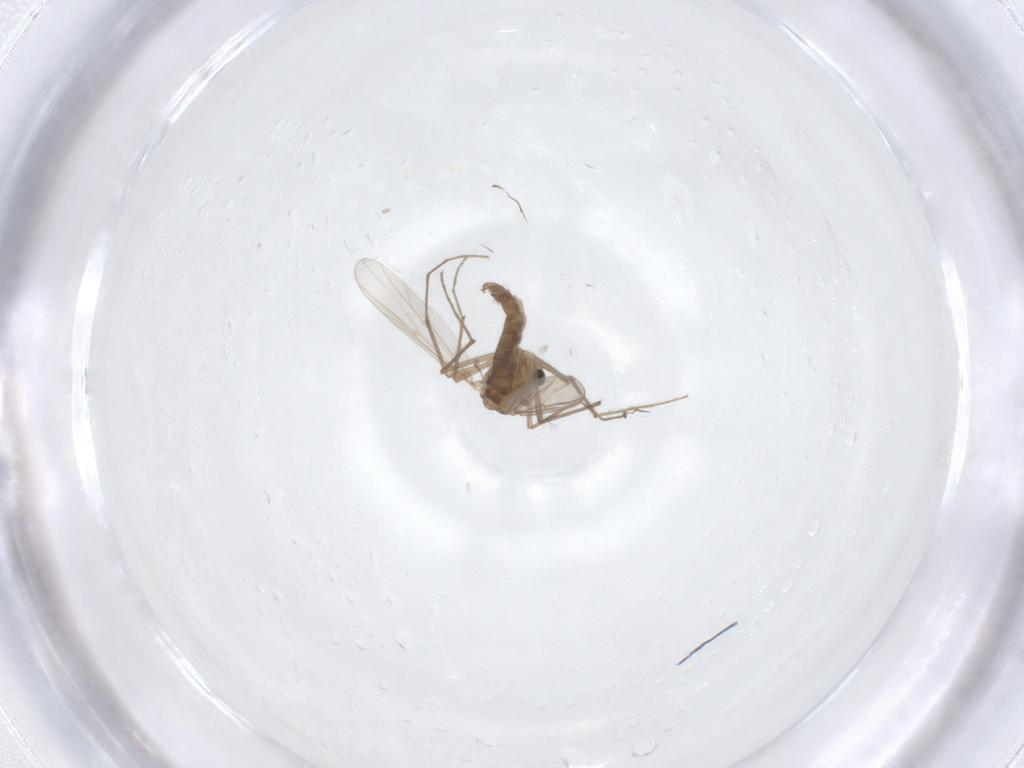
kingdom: Animalia
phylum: Arthropoda
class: Insecta
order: Diptera
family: Chironomidae
